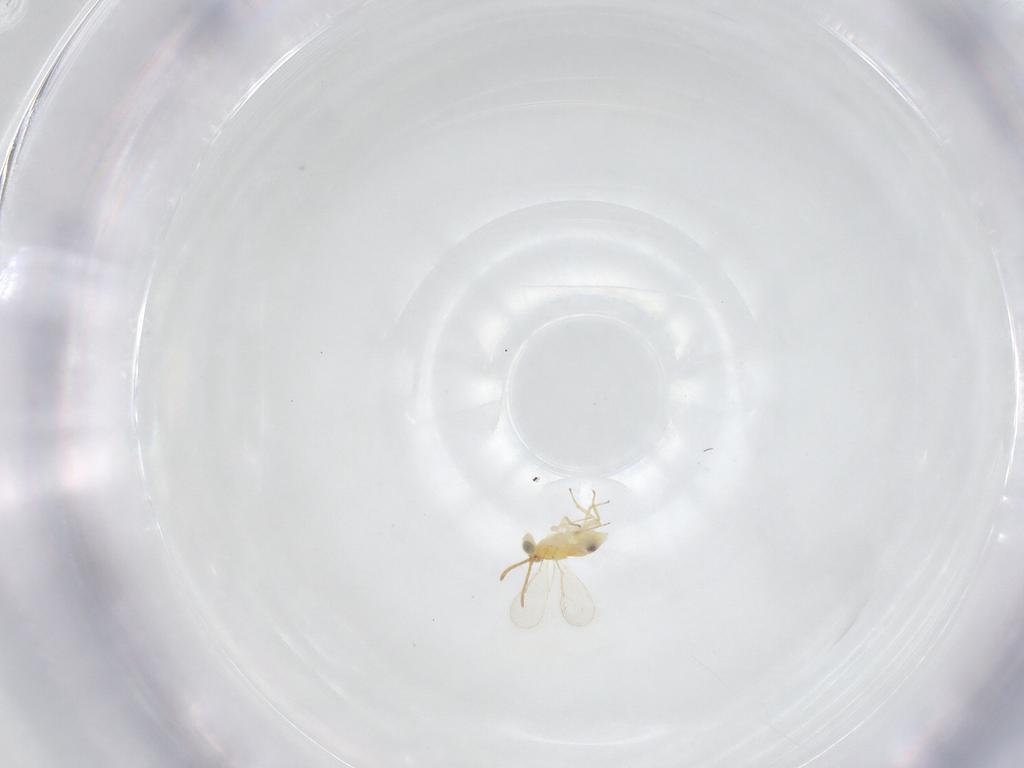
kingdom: Animalia
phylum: Arthropoda
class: Insecta
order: Hymenoptera
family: Aphelinidae
